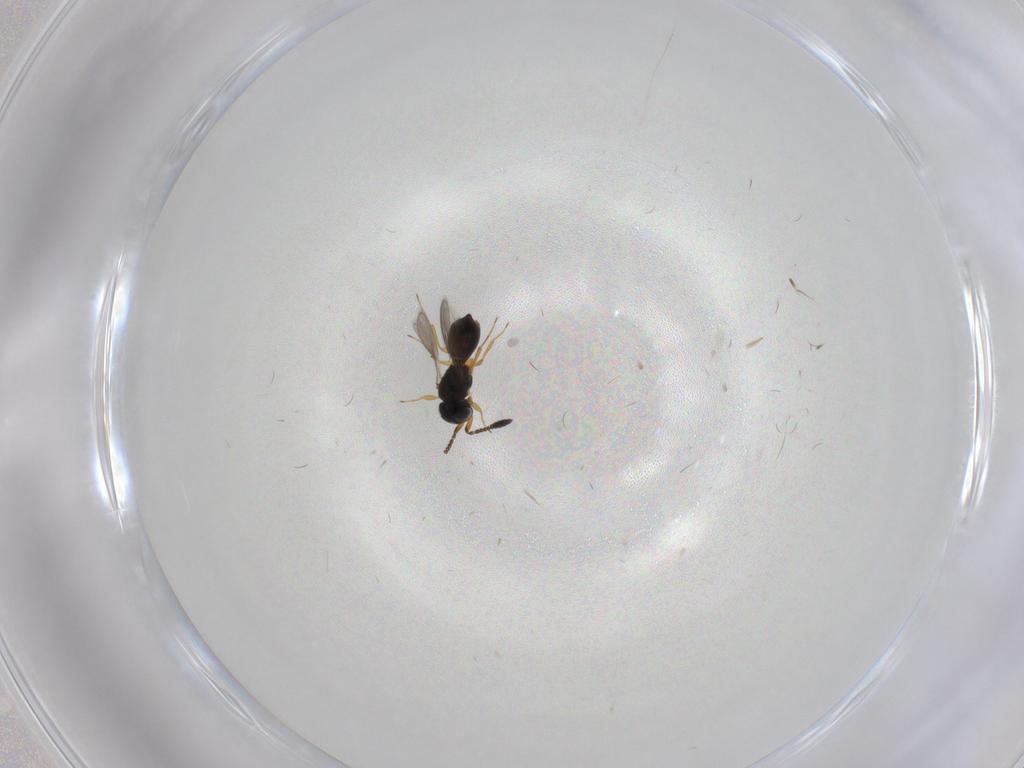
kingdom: Animalia
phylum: Arthropoda
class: Insecta
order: Hymenoptera
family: Scelionidae
